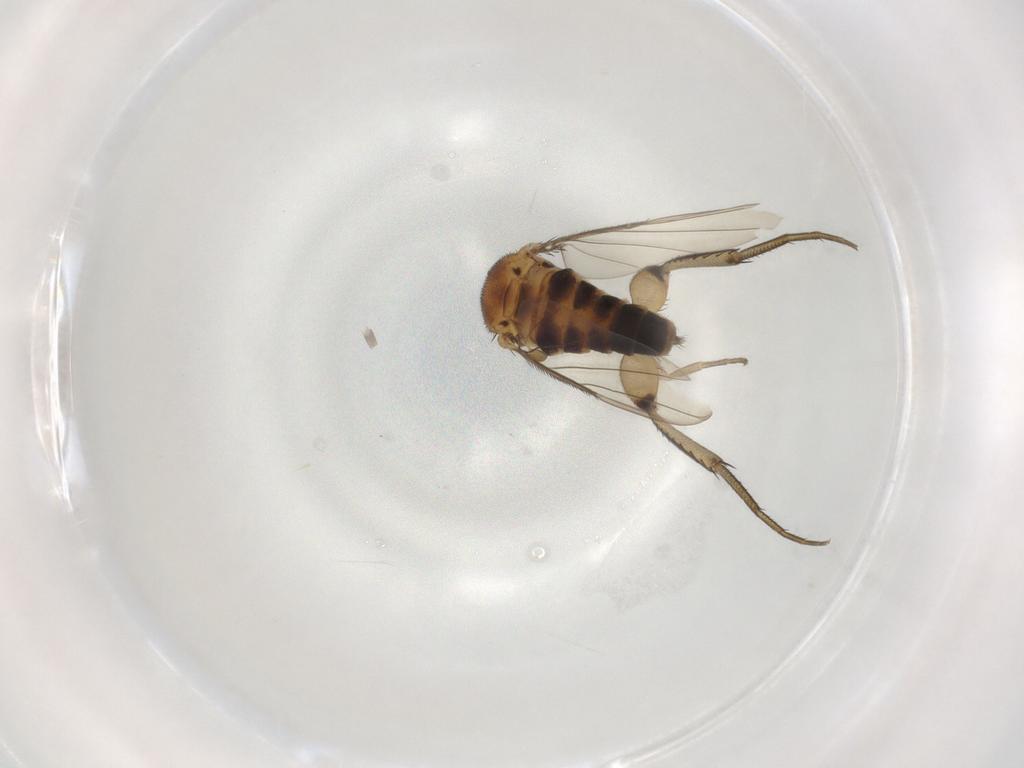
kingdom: Animalia
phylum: Arthropoda
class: Insecta
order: Diptera
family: Phoridae
